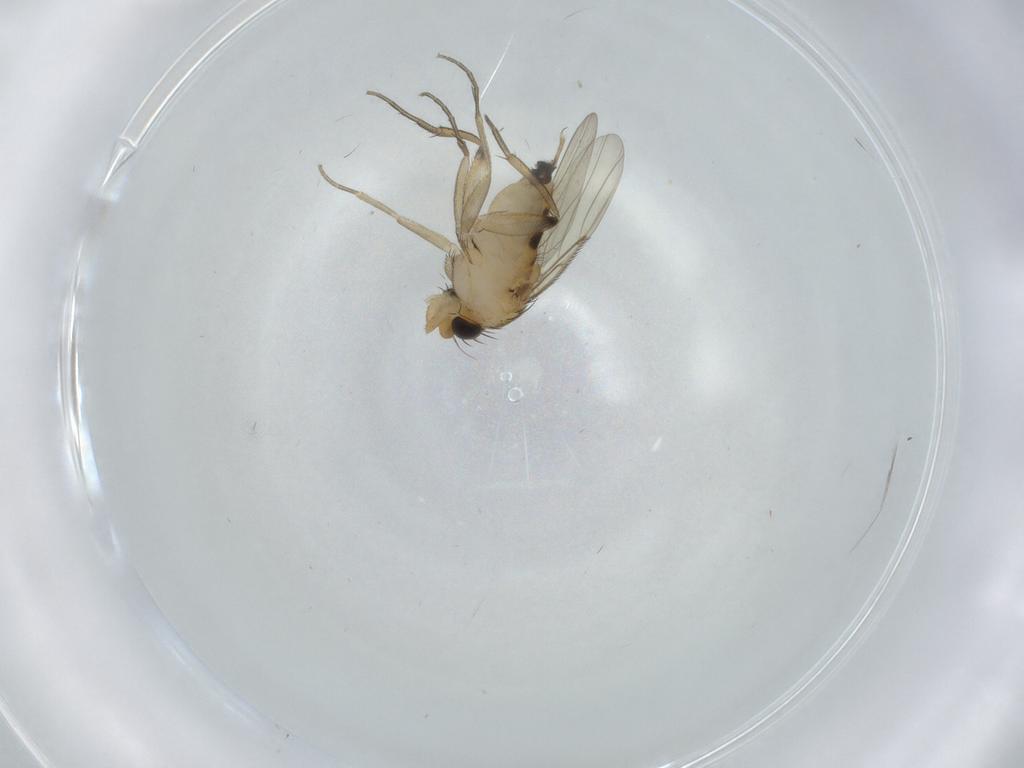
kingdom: Animalia
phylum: Arthropoda
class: Insecta
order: Diptera
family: Phoridae
